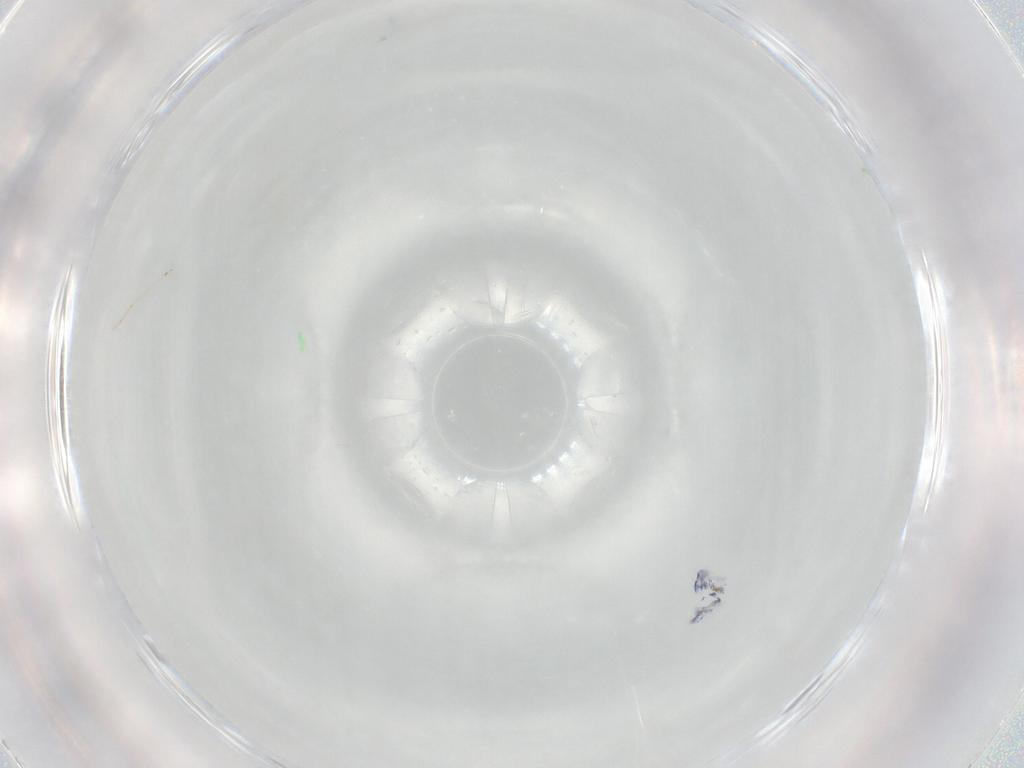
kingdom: Animalia
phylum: Arthropoda
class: Collembola
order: Entomobryomorpha
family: Entomobryidae
